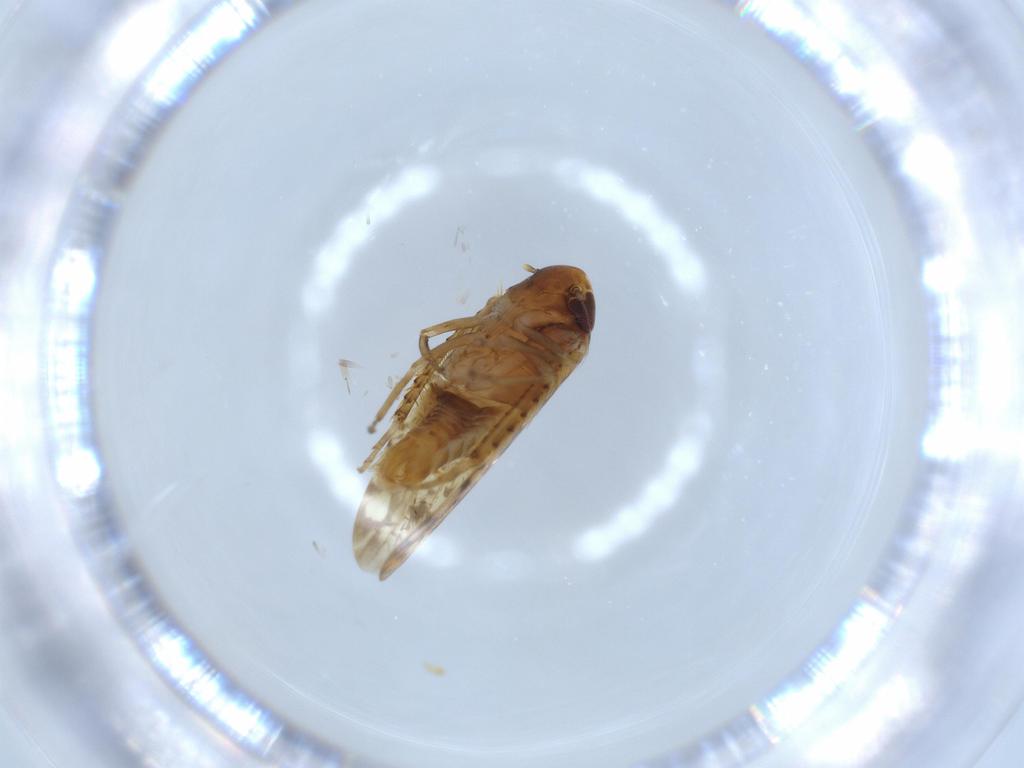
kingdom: Animalia
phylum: Arthropoda
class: Insecta
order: Hemiptera
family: Cicadellidae
